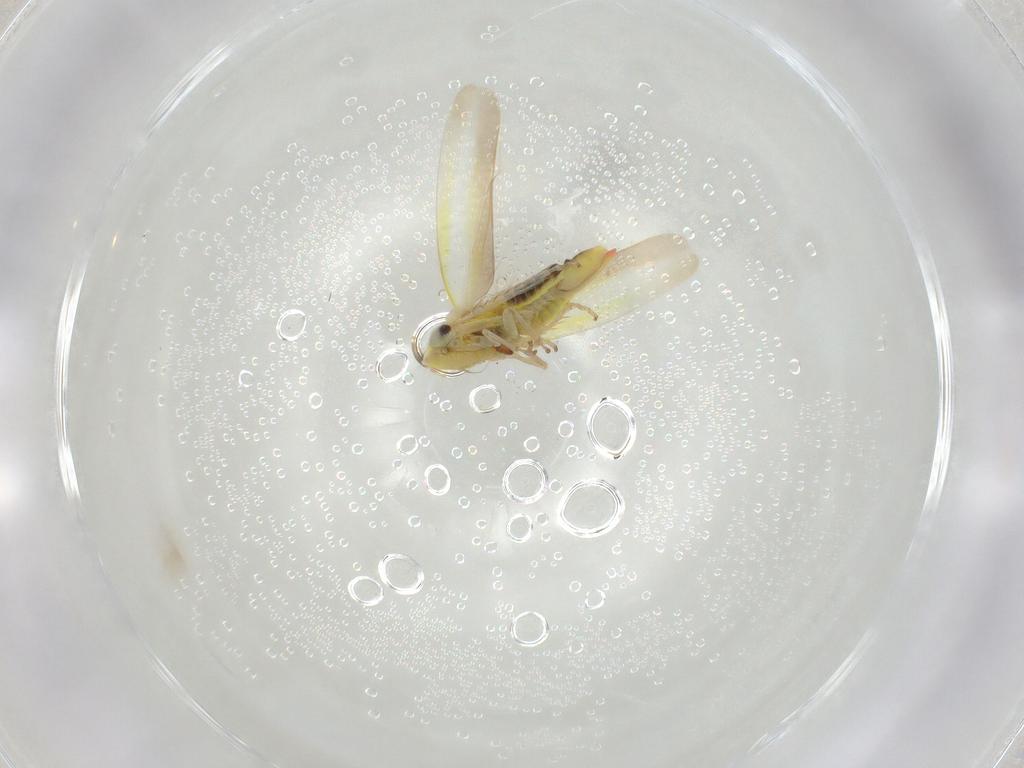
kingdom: Animalia
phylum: Arthropoda
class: Insecta
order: Hemiptera
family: Cicadellidae
